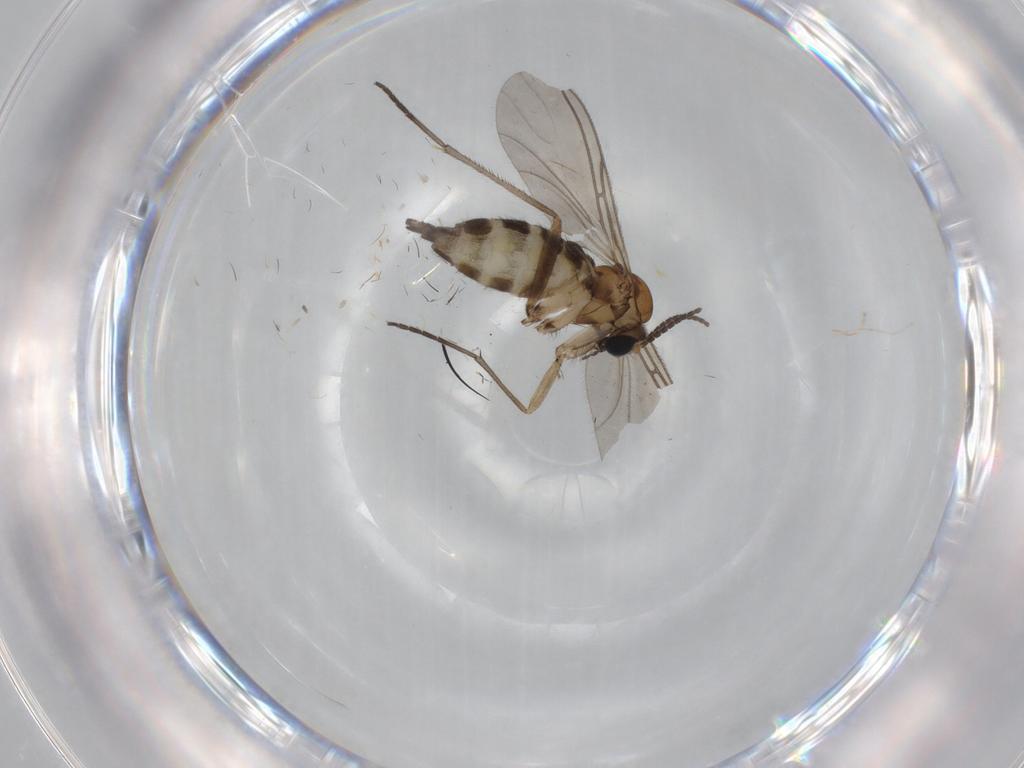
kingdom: Animalia
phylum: Arthropoda
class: Insecta
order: Diptera
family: Sciaridae
